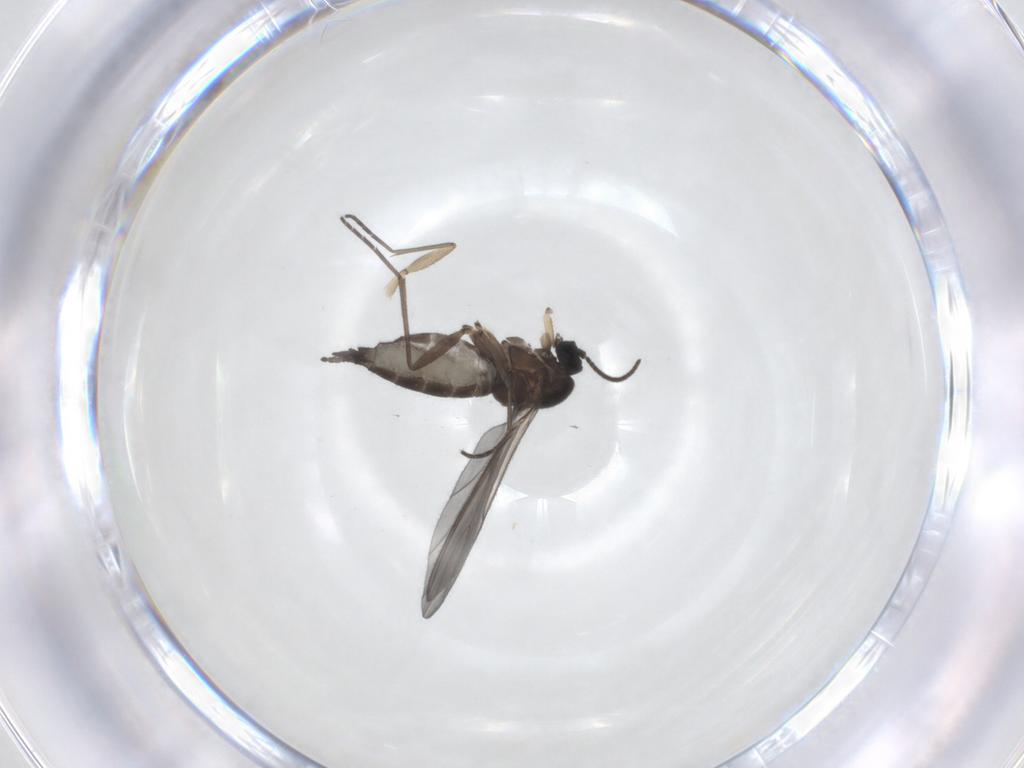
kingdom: Animalia
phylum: Arthropoda
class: Insecta
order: Diptera
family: Sciaridae
